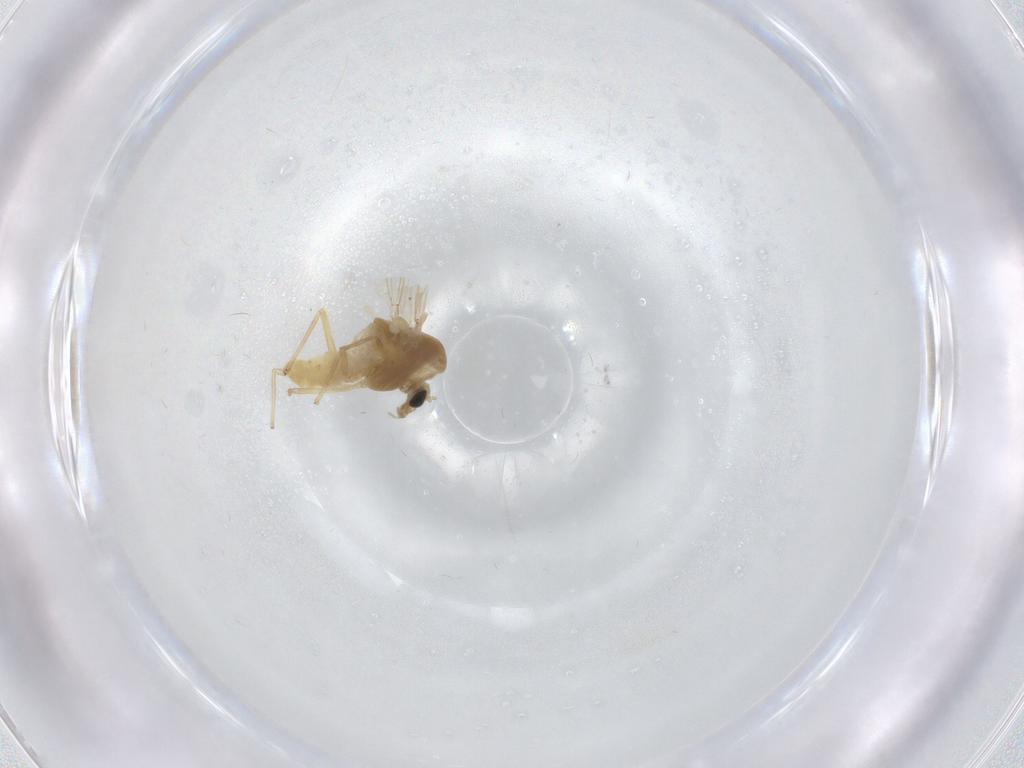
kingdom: Animalia
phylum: Arthropoda
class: Insecta
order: Diptera
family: Chironomidae
